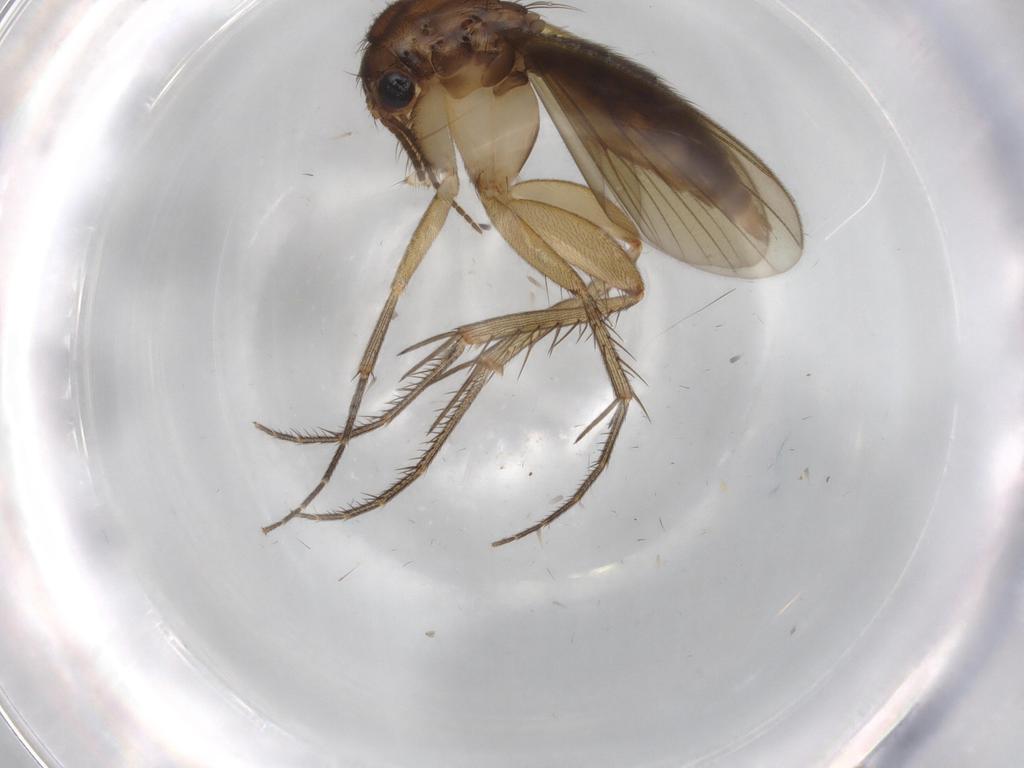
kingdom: Animalia
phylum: Arthropoda
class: Insecta
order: Diptera
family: Mycetophilidae
